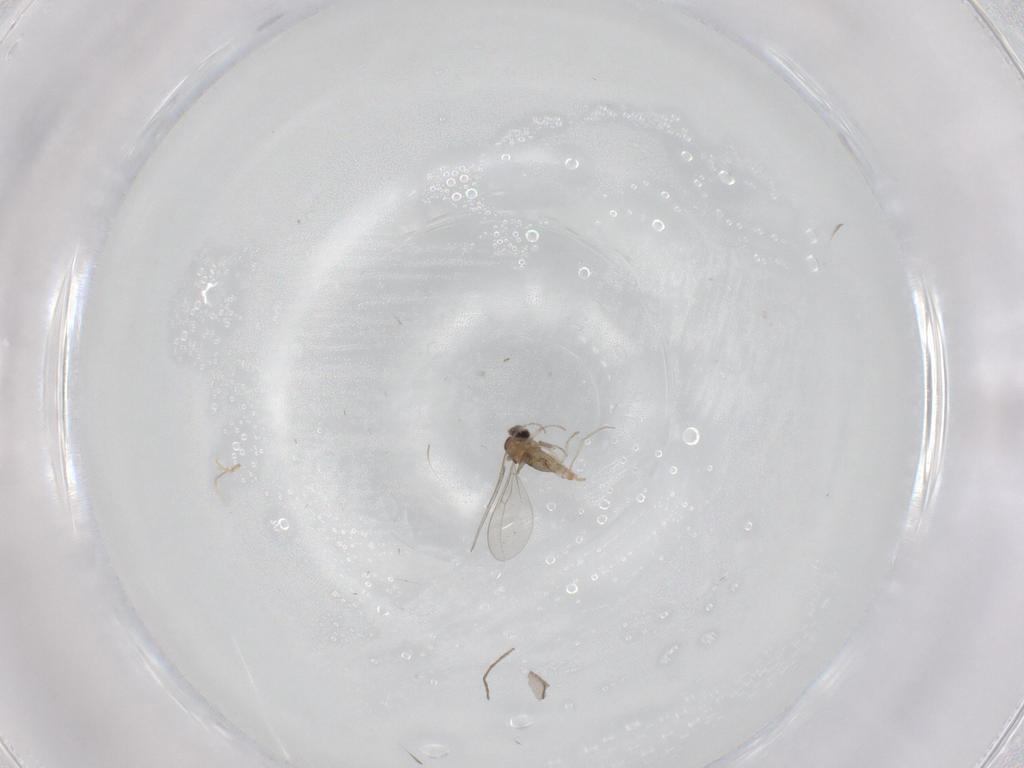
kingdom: Animalia
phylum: Arthropoda
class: Insecta
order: Diptera
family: Cecidomyiidae
